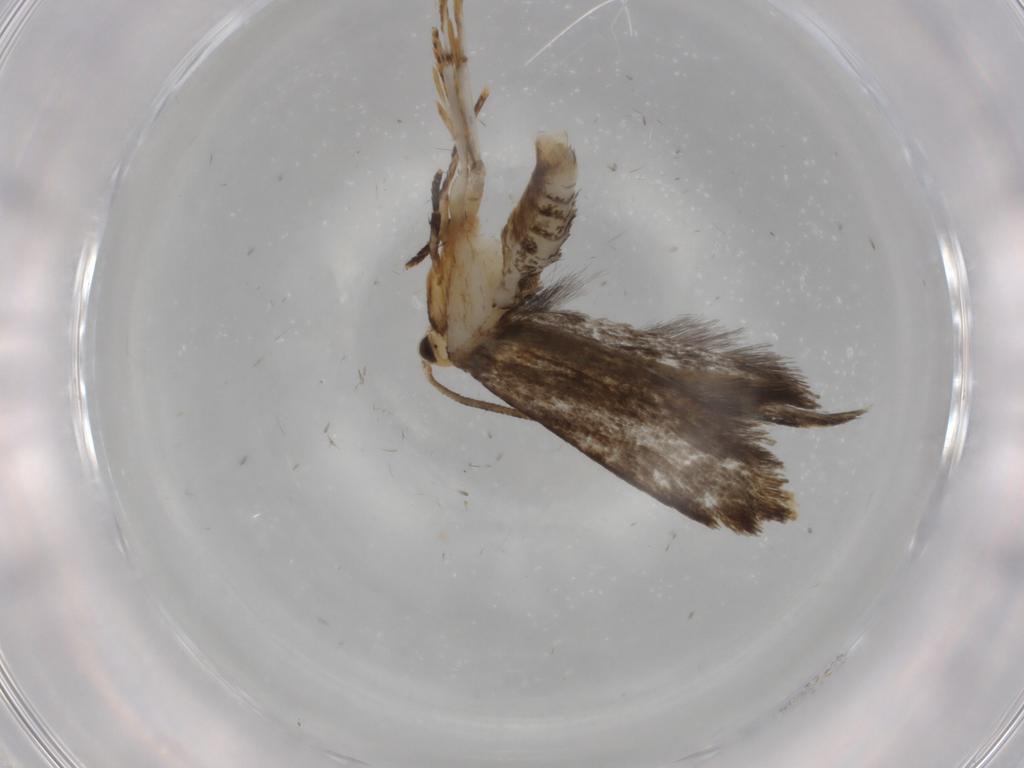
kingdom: Animalia
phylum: Arthropoda
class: Insecta
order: Lepidoptera
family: Tineidae
